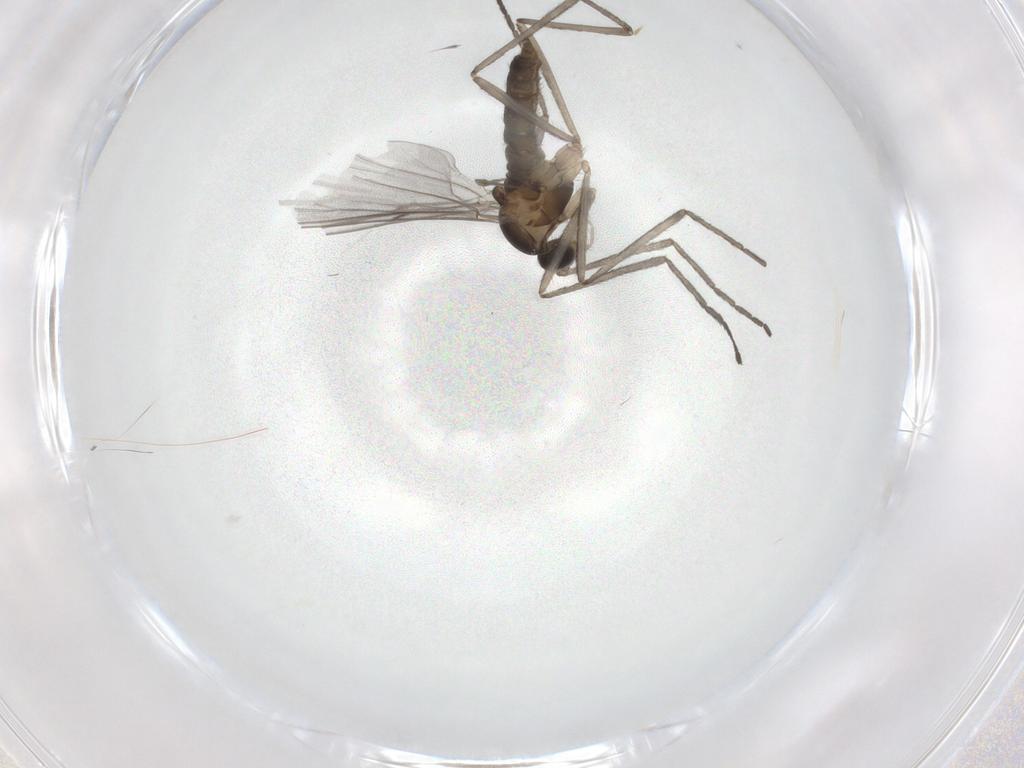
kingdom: Animalia
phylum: Arthropoda
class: Insecta
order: Diptera
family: Cecidomyiidae
